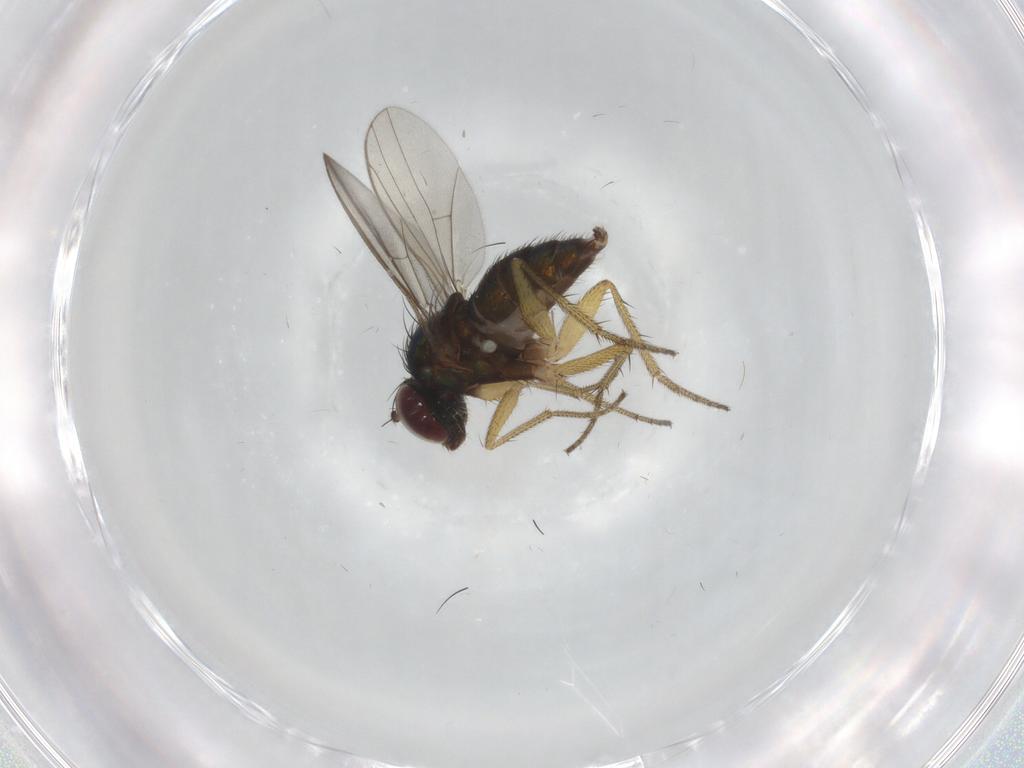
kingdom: Animalia
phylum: Arthropoda
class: Insecta
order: Diptera
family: Chironomidae
